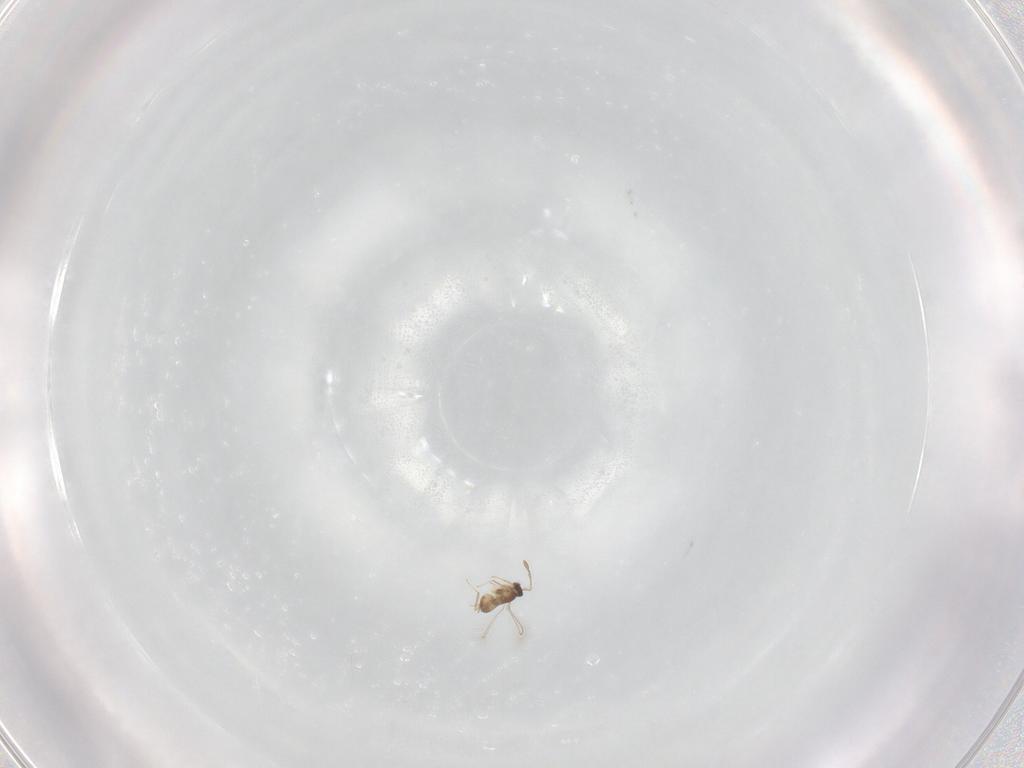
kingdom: Animalia
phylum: Arthropoda
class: Insecta
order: Hymenoptera
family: Mymaridae
